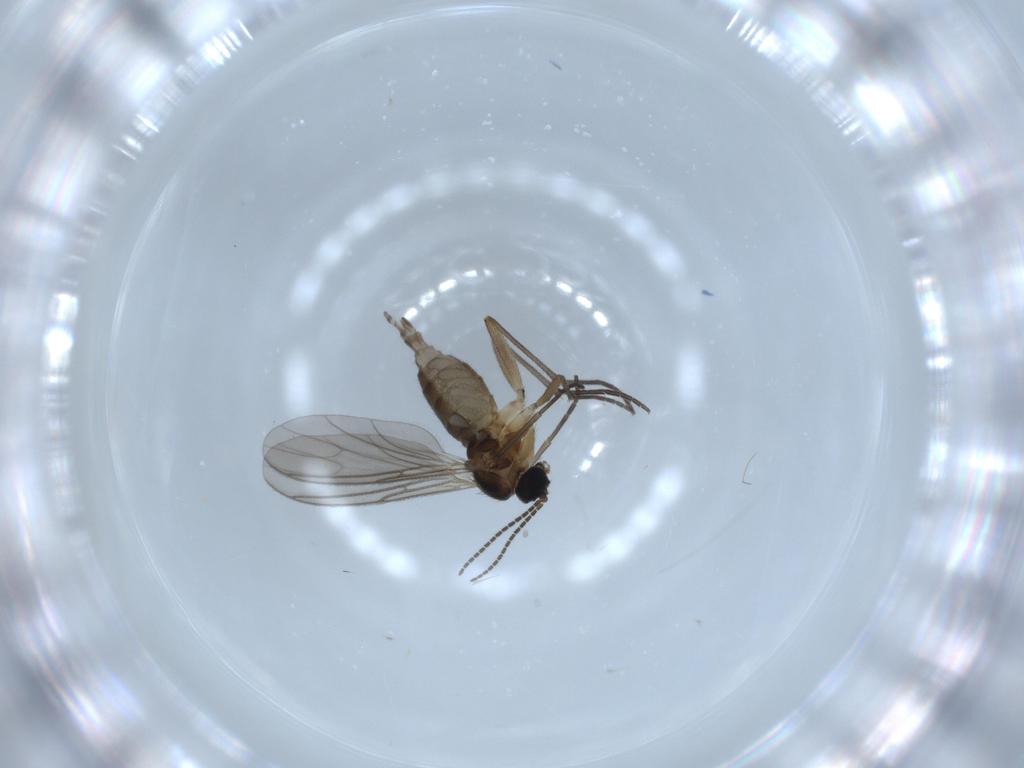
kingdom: Animalia
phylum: Arthropoda
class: Insecta
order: Diptera
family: Sciaridae
